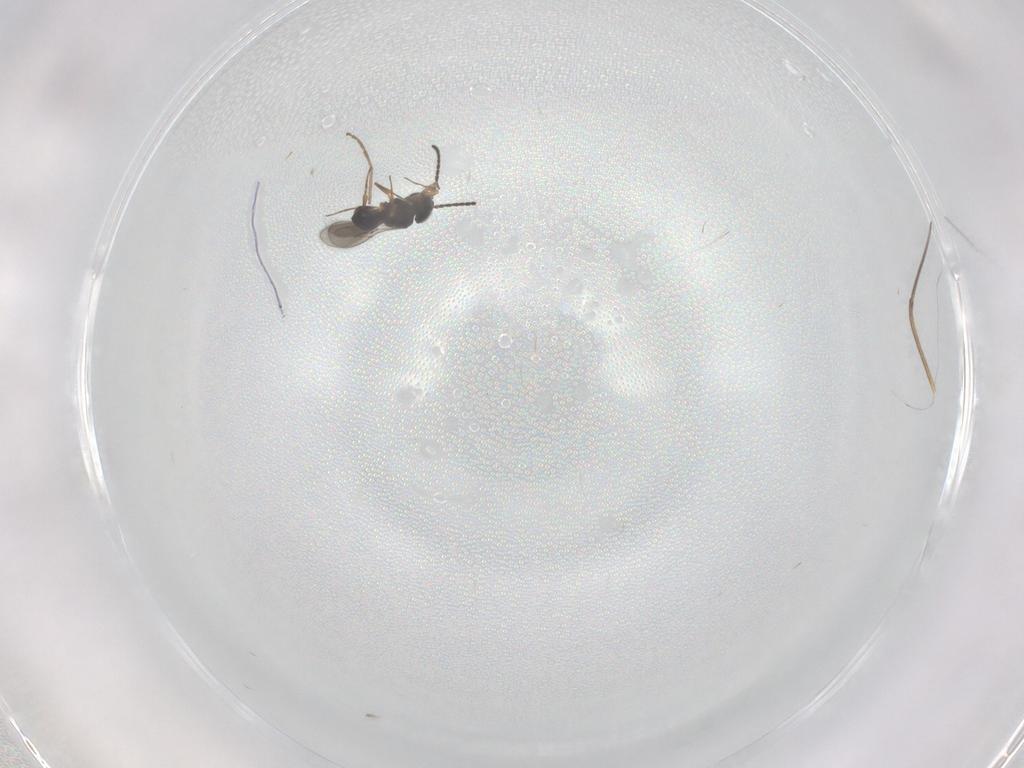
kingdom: Animalia
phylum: Arthropoda
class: Insecta
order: Hymenoptera
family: Scelionidae
